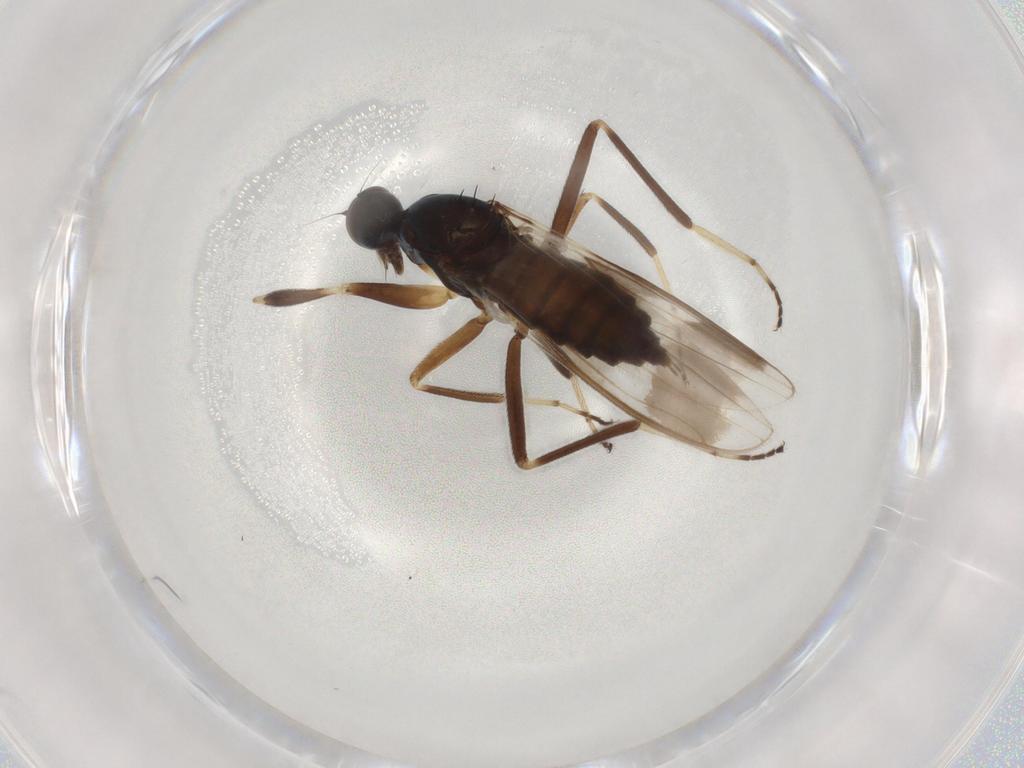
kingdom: Animalia
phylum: Arthropoda
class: Insecta
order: Diptera
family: Hybotidae
